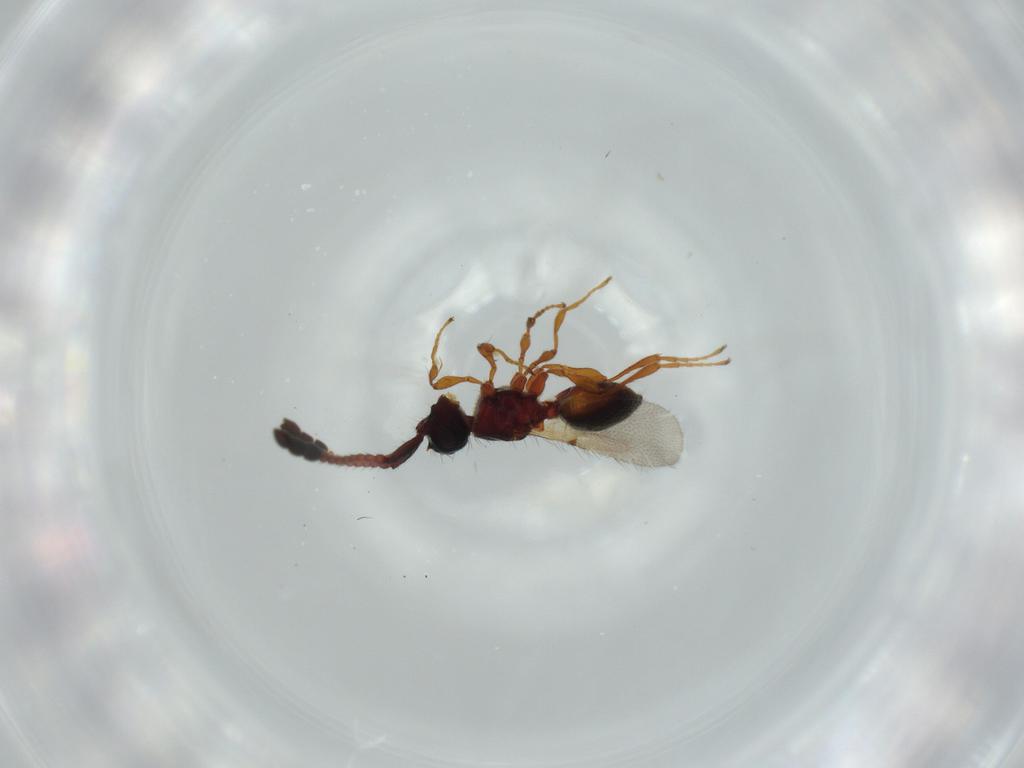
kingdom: Animalia
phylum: Arthropoda
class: Insecta
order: Hymenoptera
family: Diapriidae
